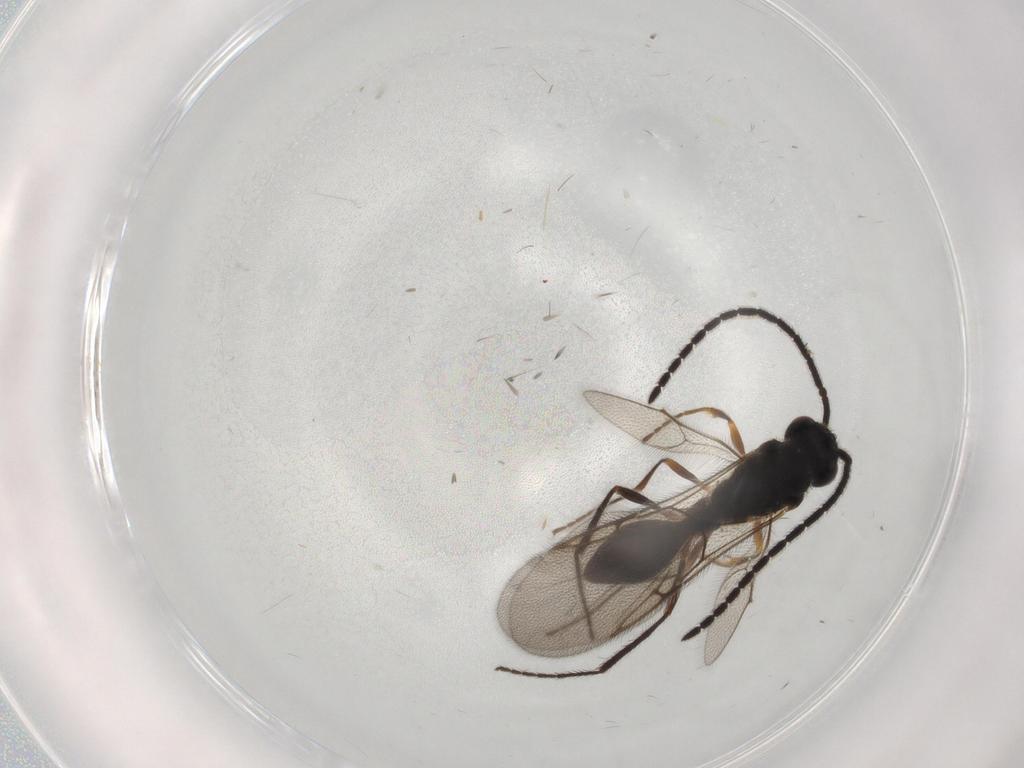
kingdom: Animalia
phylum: Arthropoda
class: Insecta
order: Hymenoptera
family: Diapriidae
